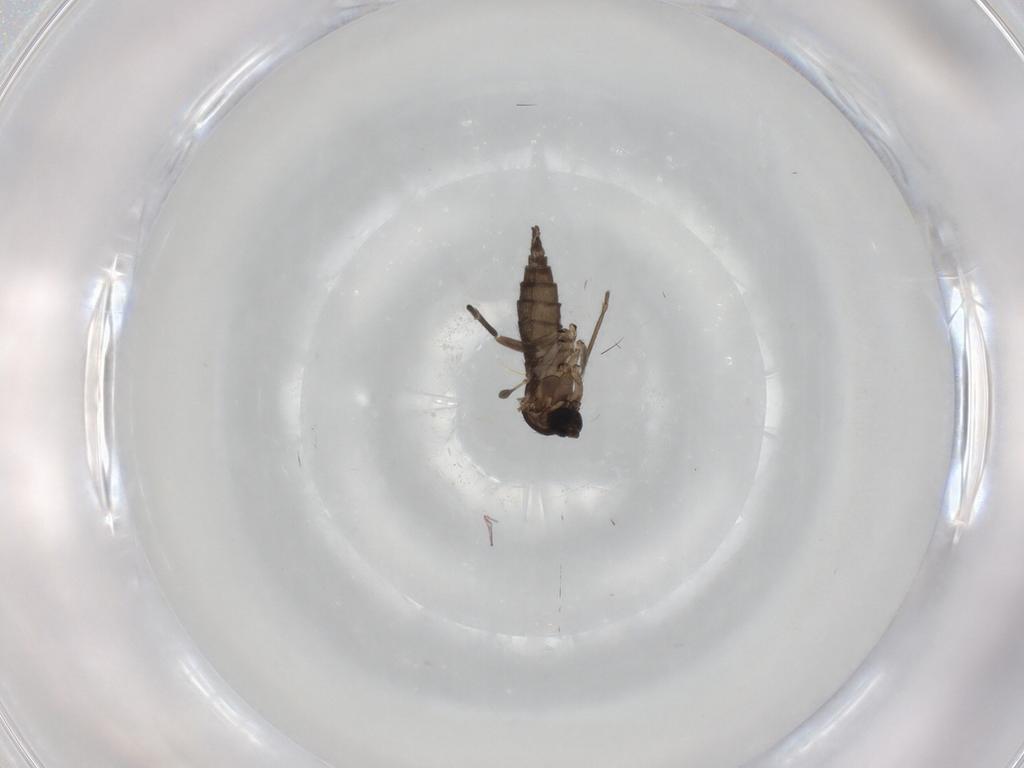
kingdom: Animalia
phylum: Arthropoda
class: Insecta
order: Diptera
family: Sciaridae
